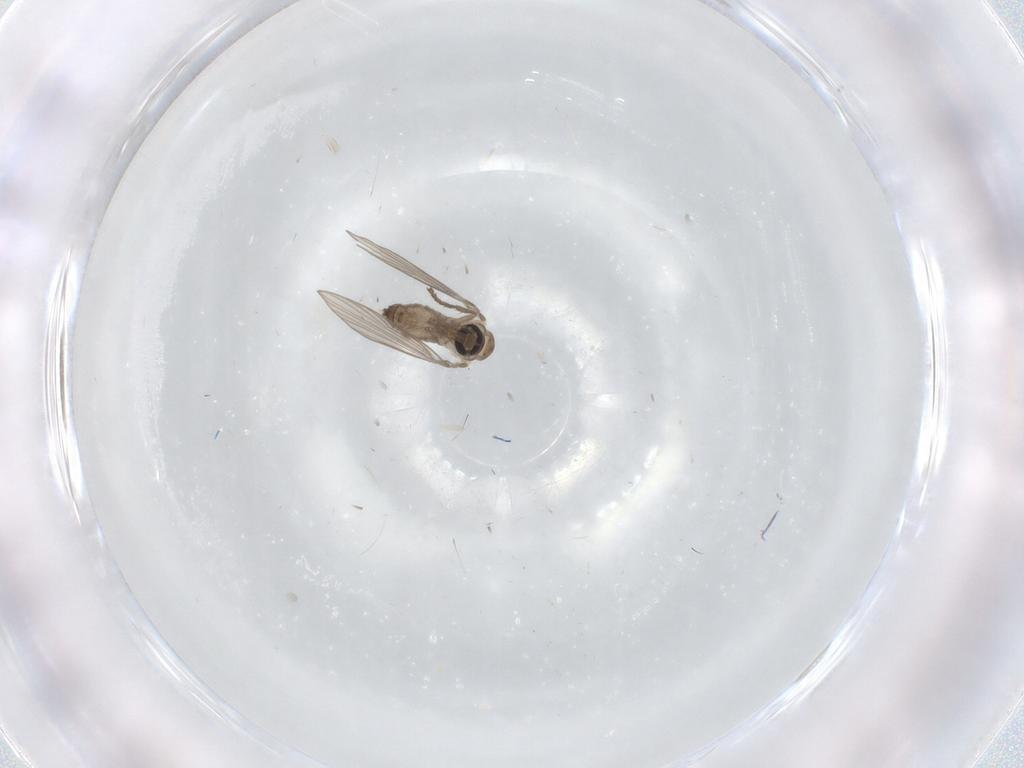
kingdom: Animalia
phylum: Arthropoda
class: Insecta
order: Diptera
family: Psychodidae
